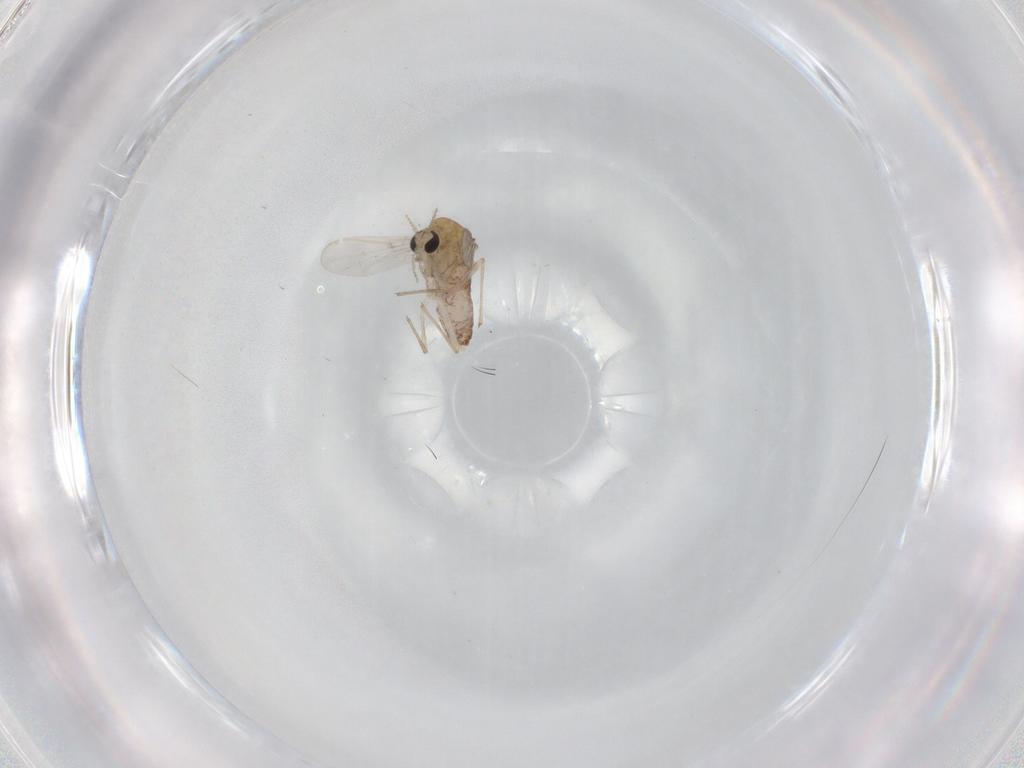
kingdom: Animalia
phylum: Arthropoda
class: Insecta
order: Diptera
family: Chironomidae
